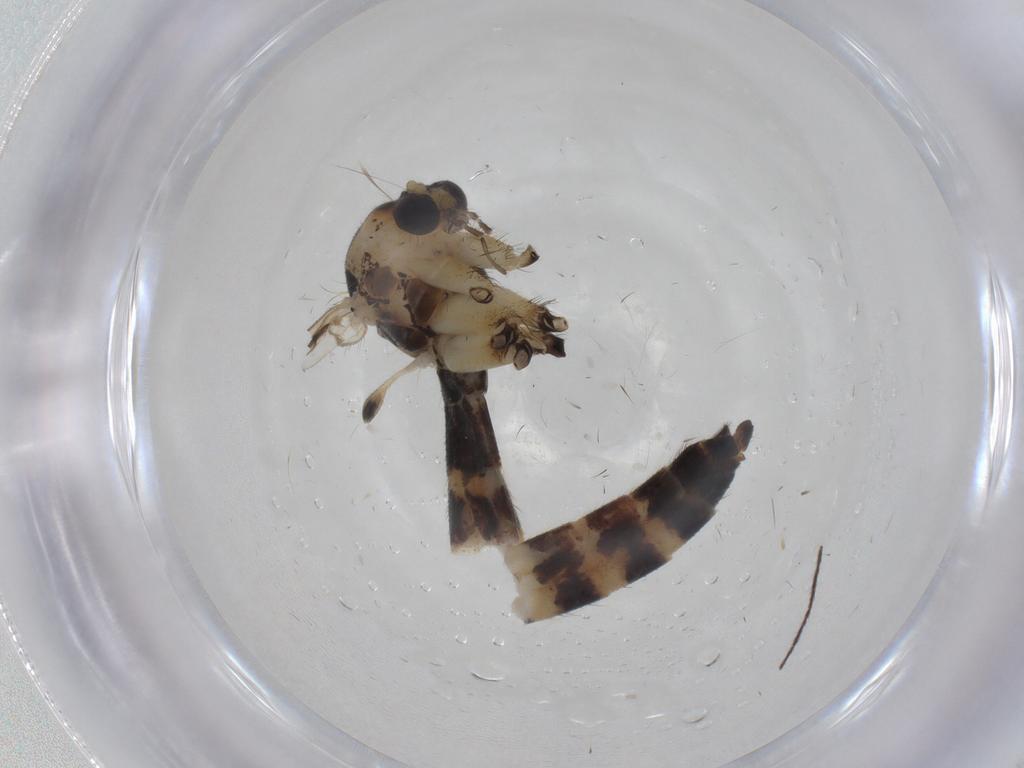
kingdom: Animalia
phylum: Arthropoda
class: Insecta
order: Diptera
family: Mycetophilidae
